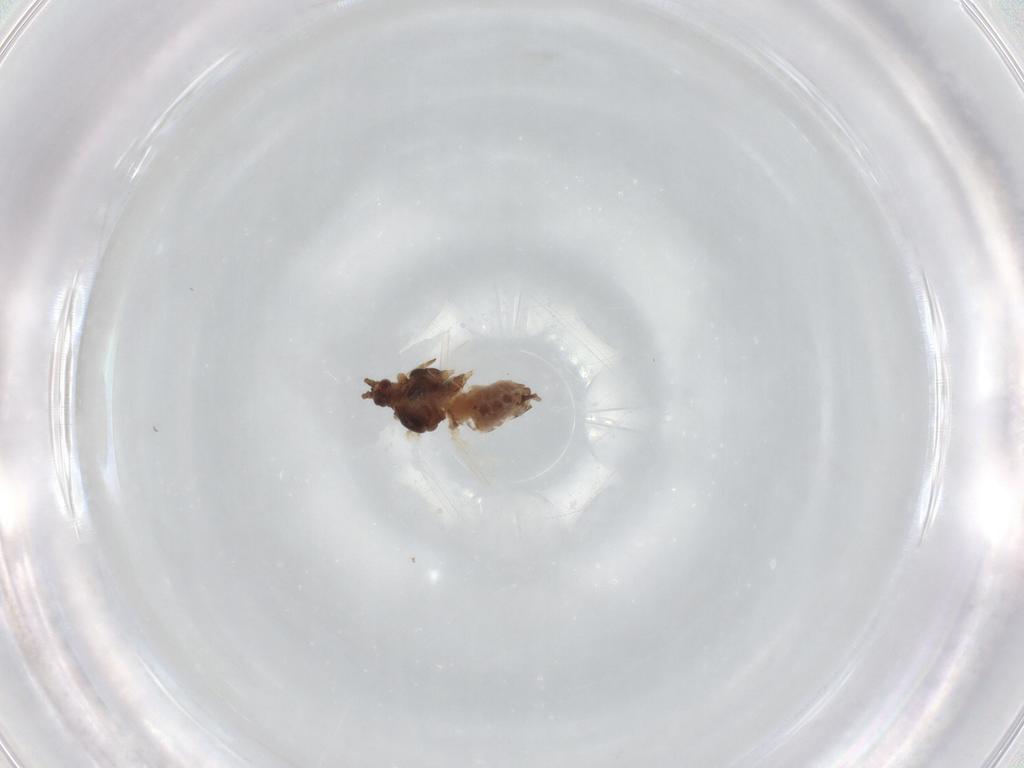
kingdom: Animalia
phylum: Arthropoda
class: Insecta
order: Hemiptera
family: Aphididae
